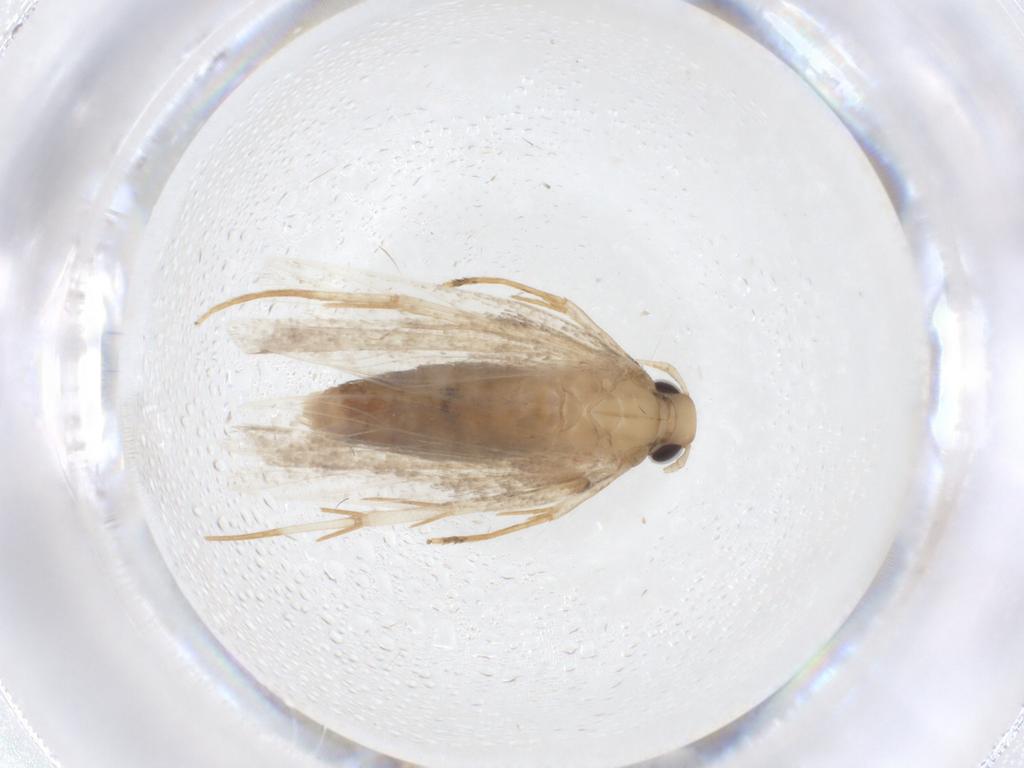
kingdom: Animalia
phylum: Arthropoda
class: Insecta
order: Lepidoptera
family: Lecithoceridae
